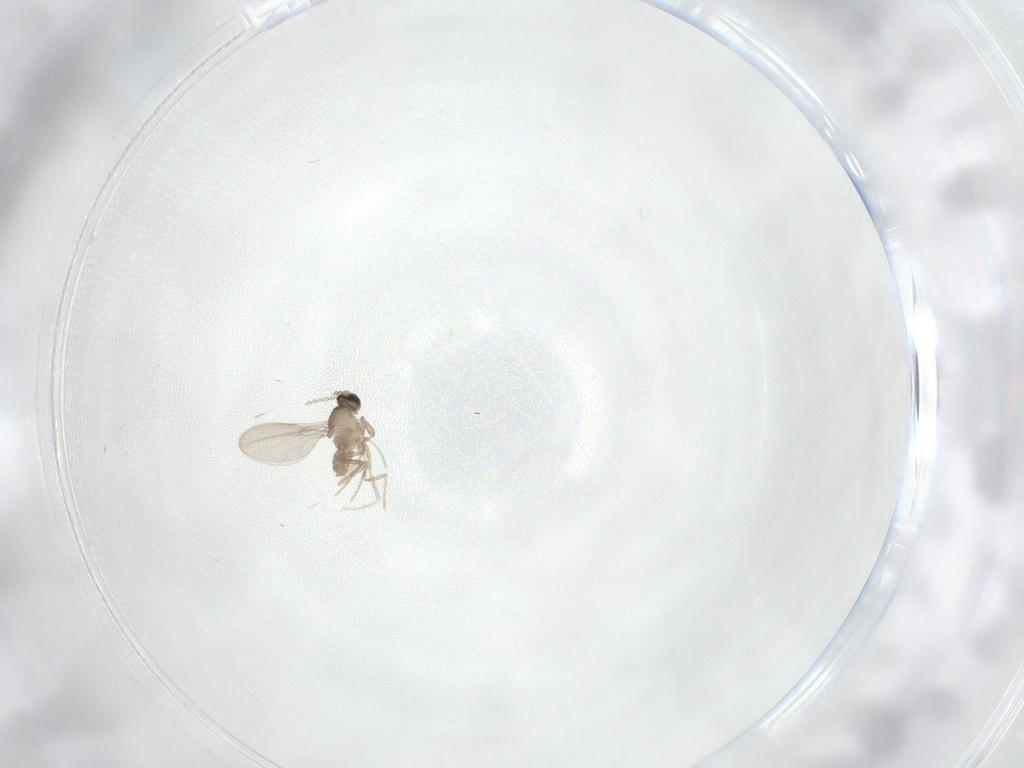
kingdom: Animalia
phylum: Arthropoda
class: Insecta
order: Diptera
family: Cecidomyiidae
